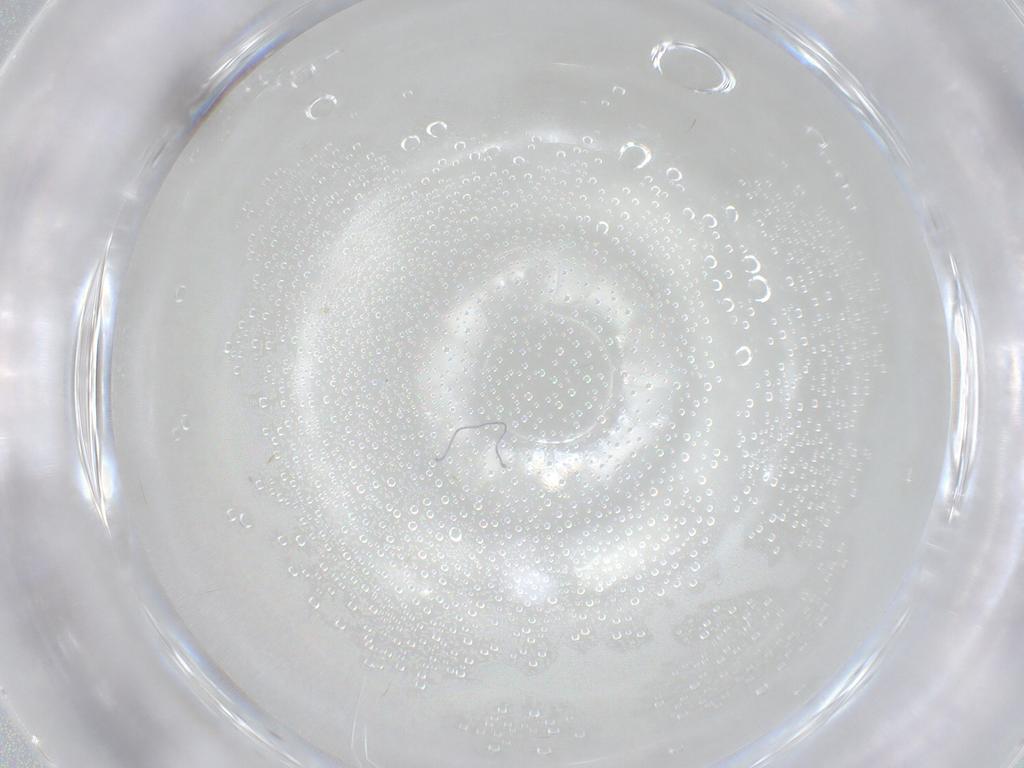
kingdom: Animalia
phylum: Arthropoda
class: Insecta
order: Hymenoptera
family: Scelionidae
